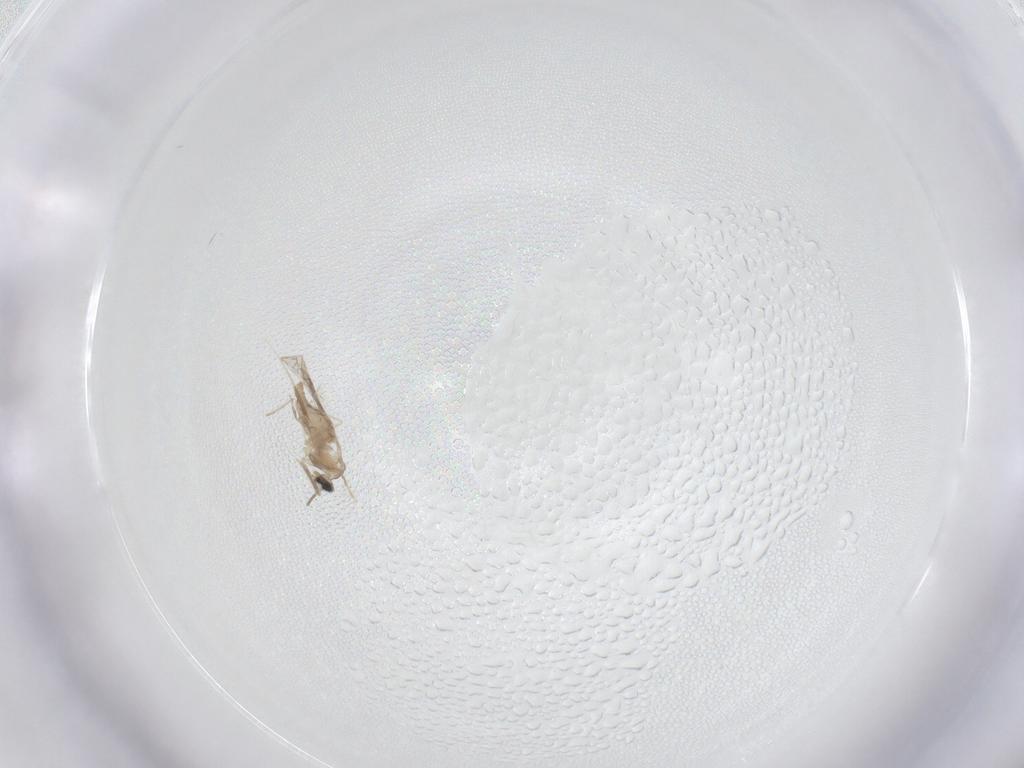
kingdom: Animalia
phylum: Arthropoda
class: Insecta
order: Diptera
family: Cecidomyiidae
